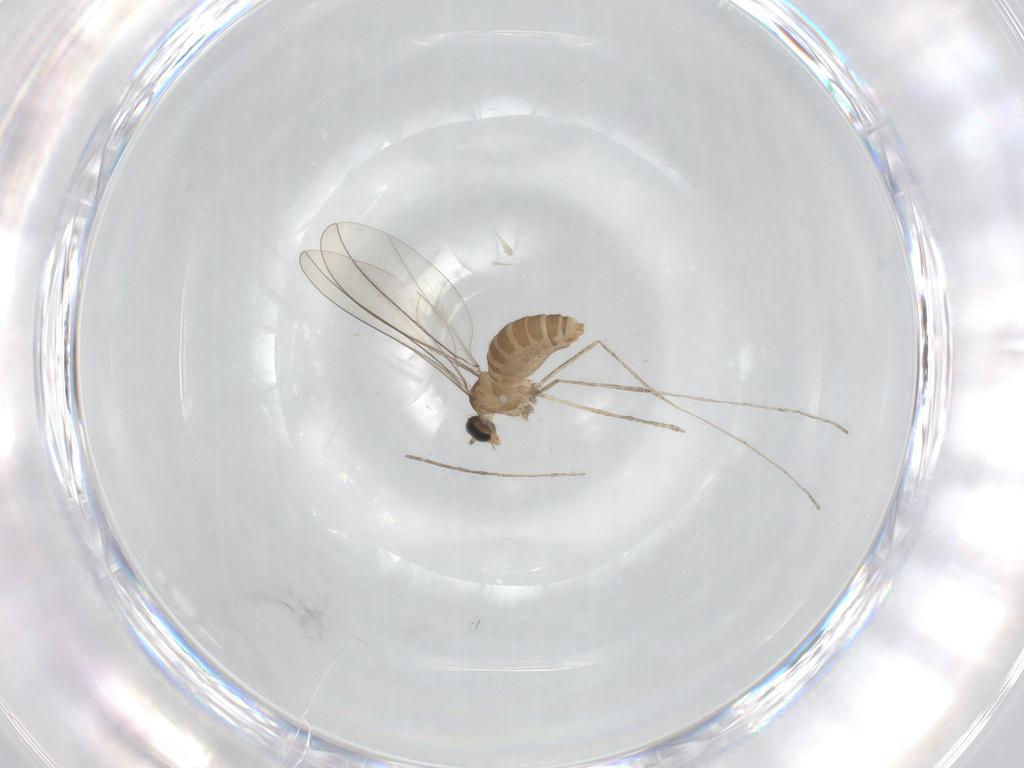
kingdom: Animalia
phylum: Arthropoda
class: Insecta
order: Diptera
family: Cecidomyiidae
